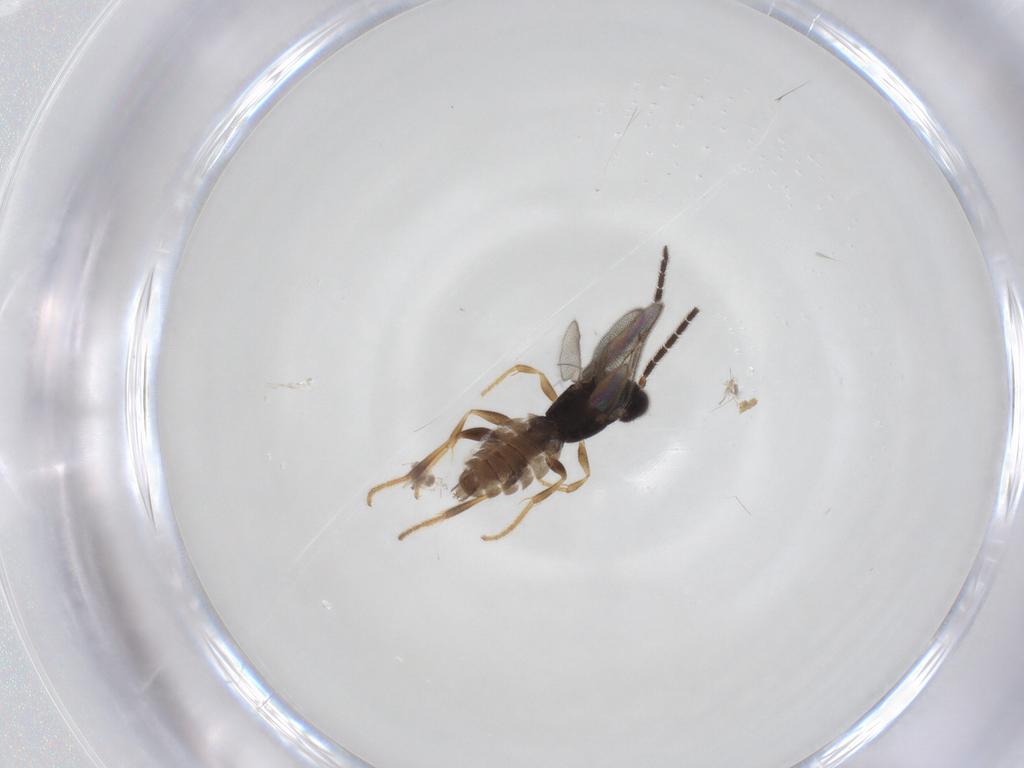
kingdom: Animalia
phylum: Arthropoda
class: Insecta
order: Hymenoptera
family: Dryinidae
